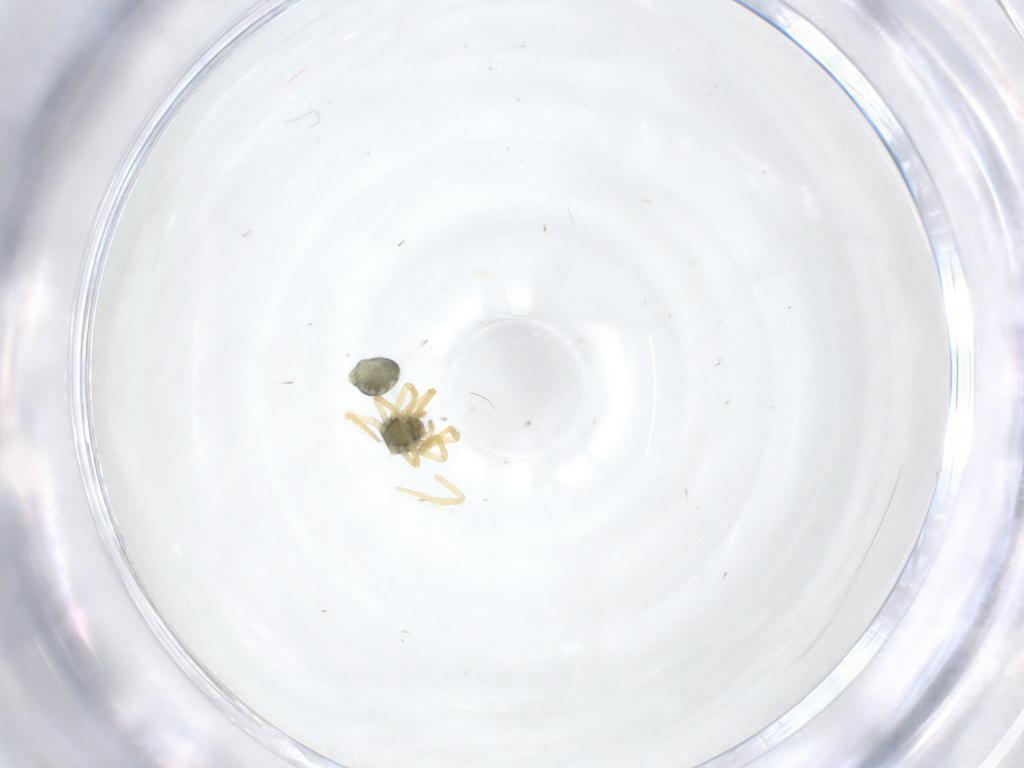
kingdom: Animalia
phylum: Arthropoda
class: Arachnida
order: Araneae
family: Theridiidae
